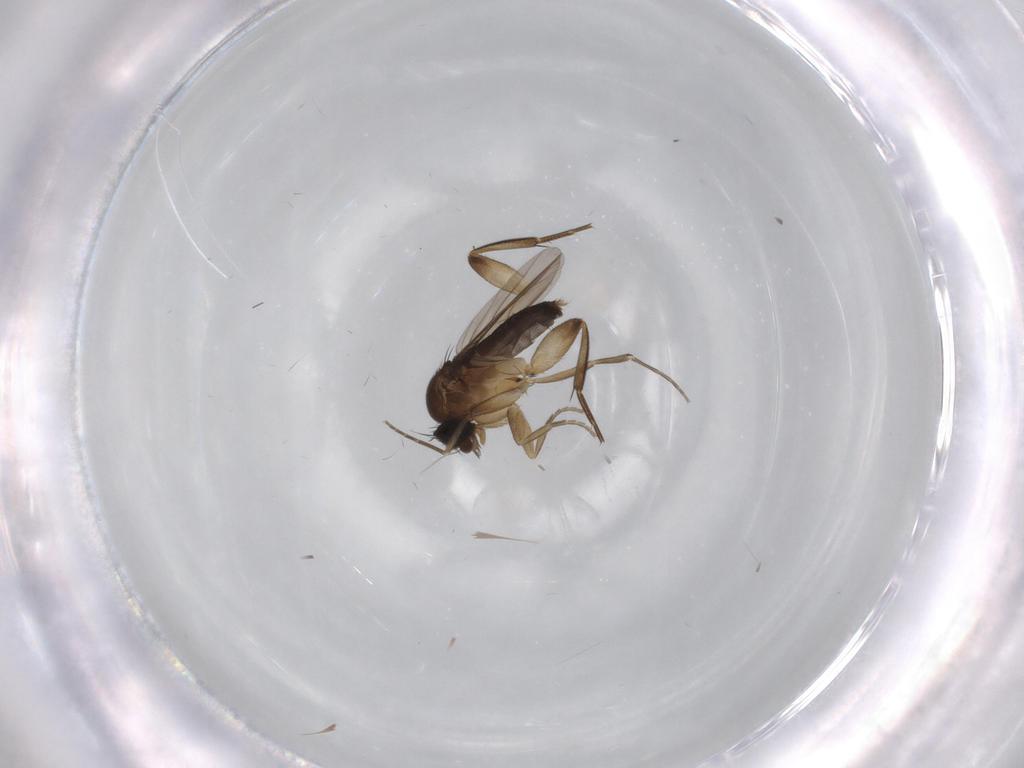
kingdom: Animalia
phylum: Arthropoda
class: Insecta
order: Diptera
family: Phoridae
